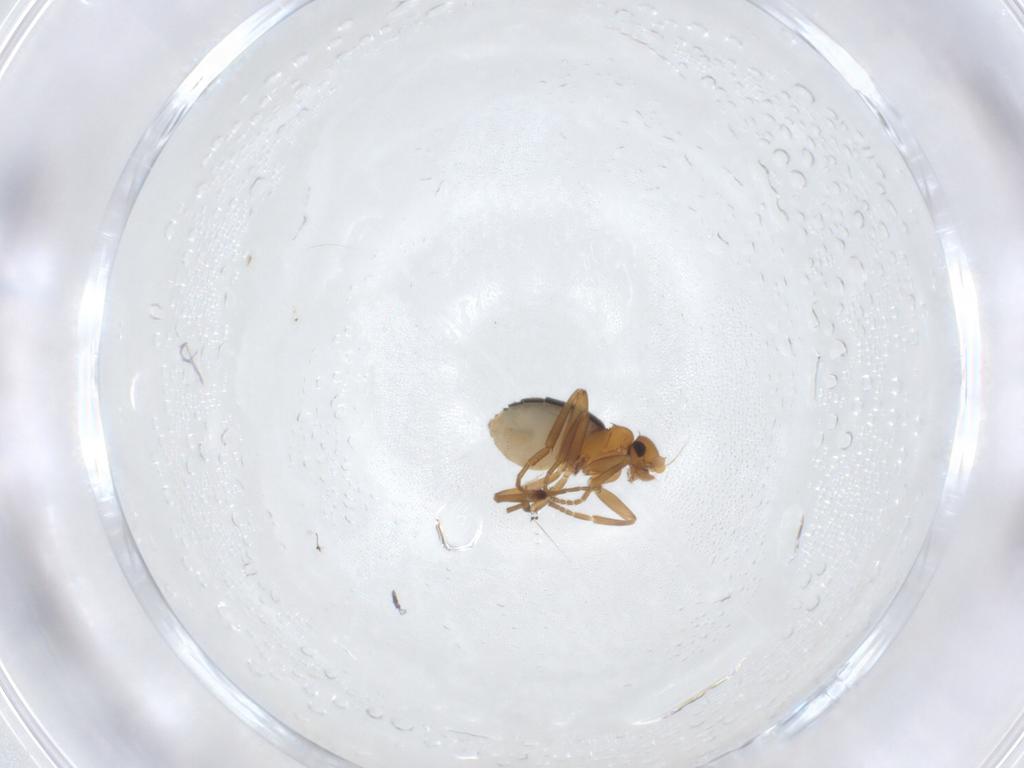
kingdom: Animalia
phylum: Arthropoda
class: Insecta
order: Diptera
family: Phoridae
